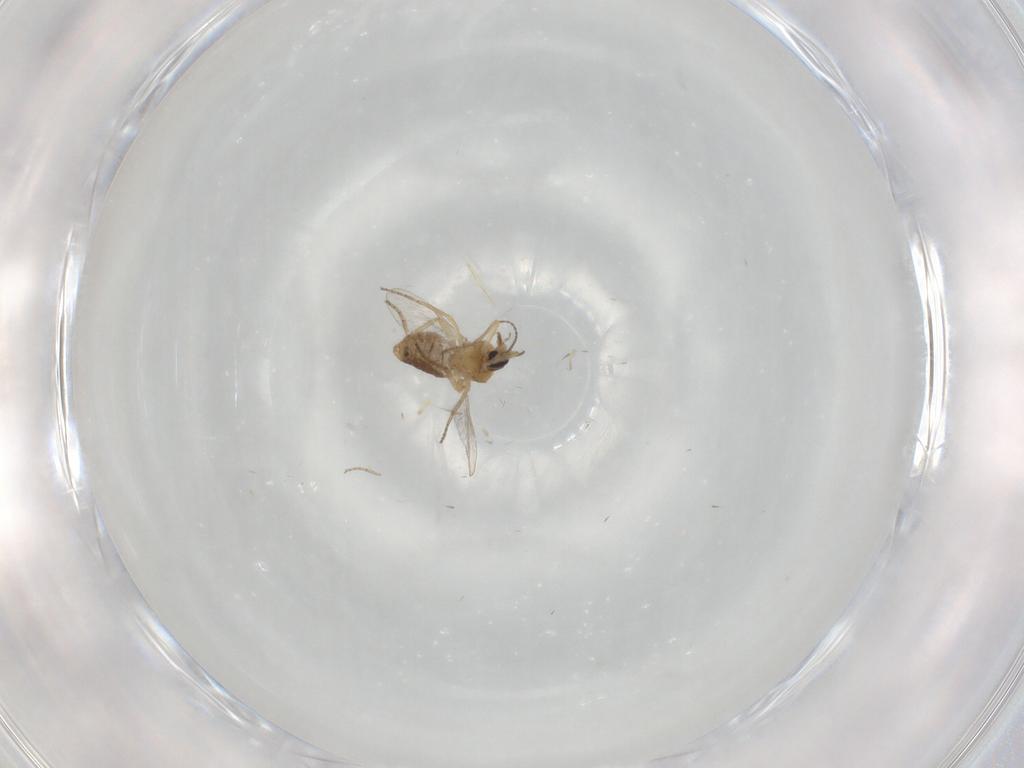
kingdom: Animalia
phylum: Arthropoda
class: Insecta
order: Diptera
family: Ceratopogonidae
